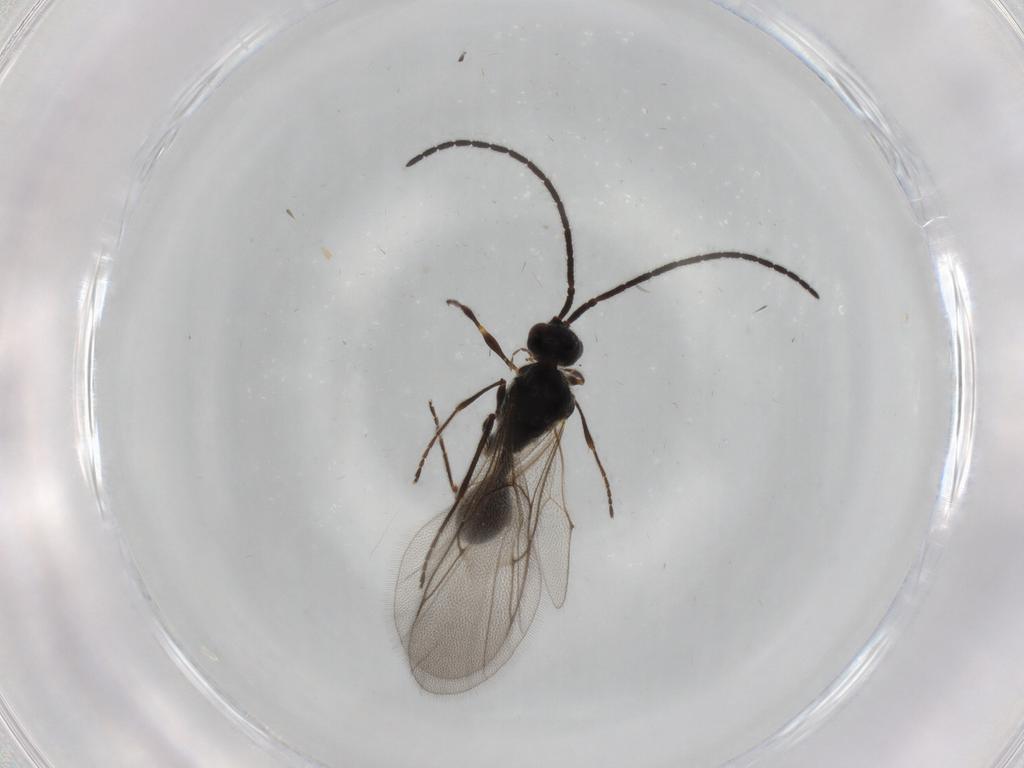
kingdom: Animalia
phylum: Arthropoda
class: Insecta
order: Hymenoptera
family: Diapriidae
